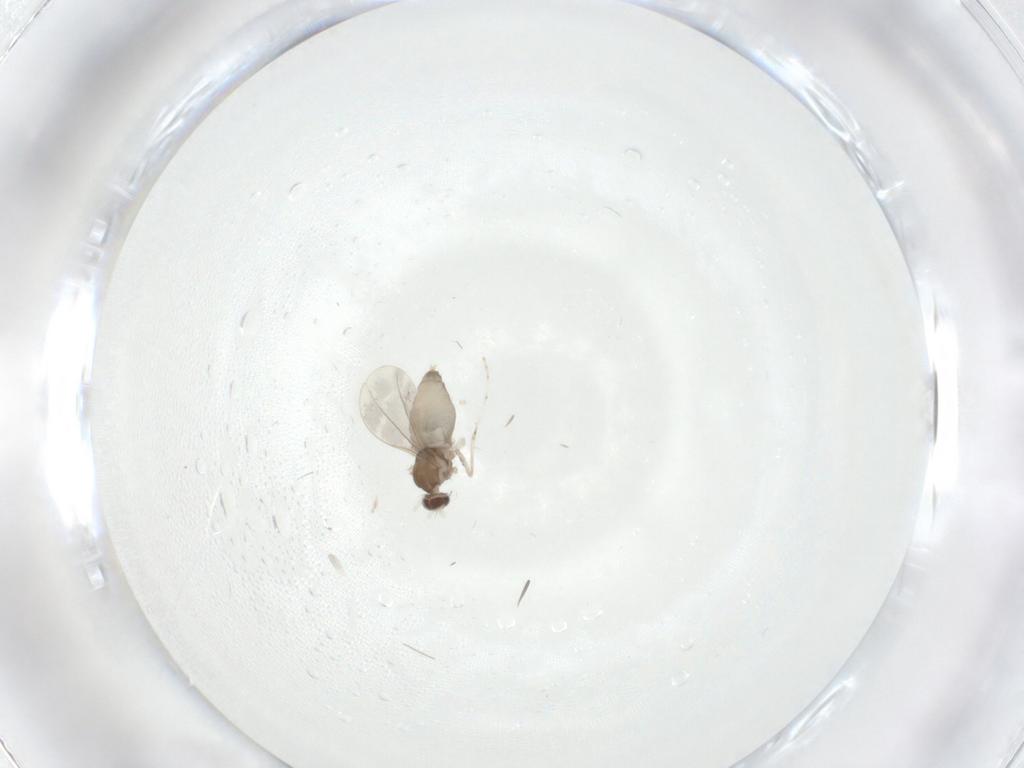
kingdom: Animalia
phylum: Arthropoda
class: Insecta
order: Diptera
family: Cecidomyiidae
